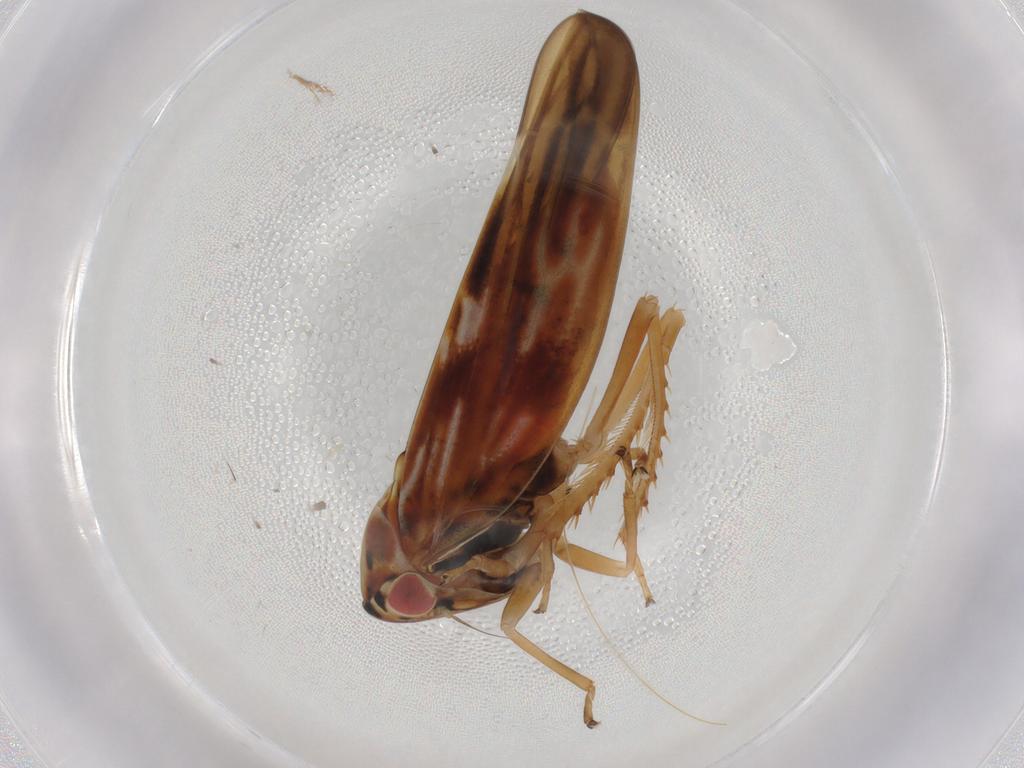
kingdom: Animalia
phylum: Arthropoda
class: Insecta
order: Hemiptera
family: Cicadellidae
